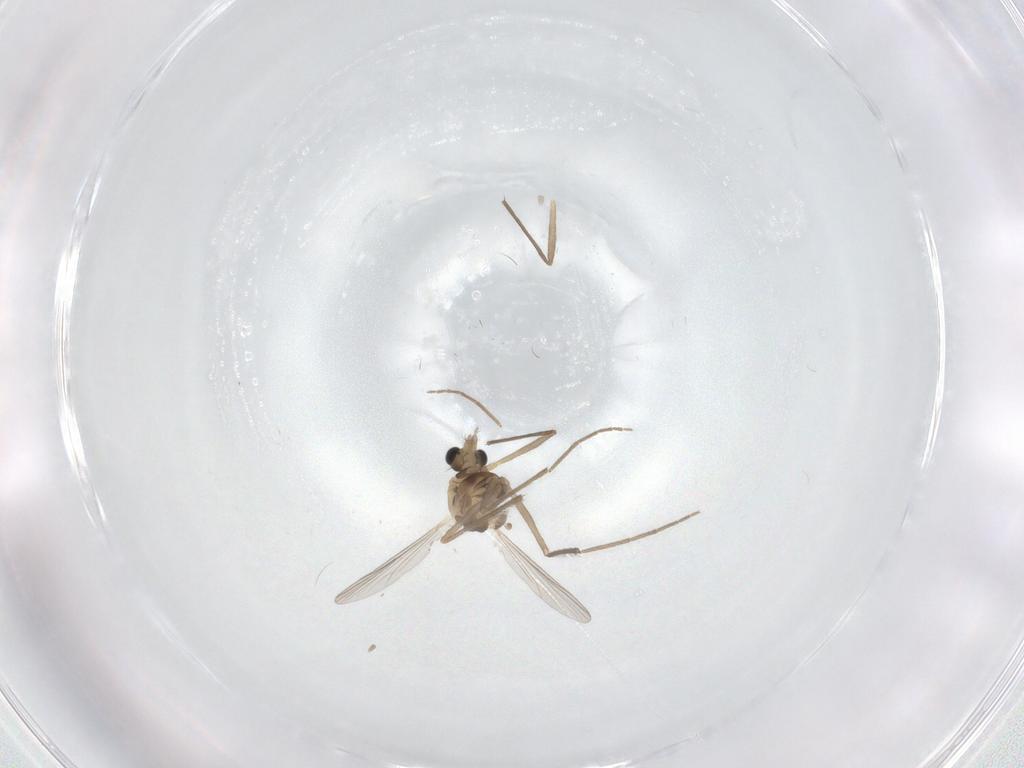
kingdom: Animalia
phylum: Arthropoda
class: Insecta
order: Diptera
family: Chironomidae
